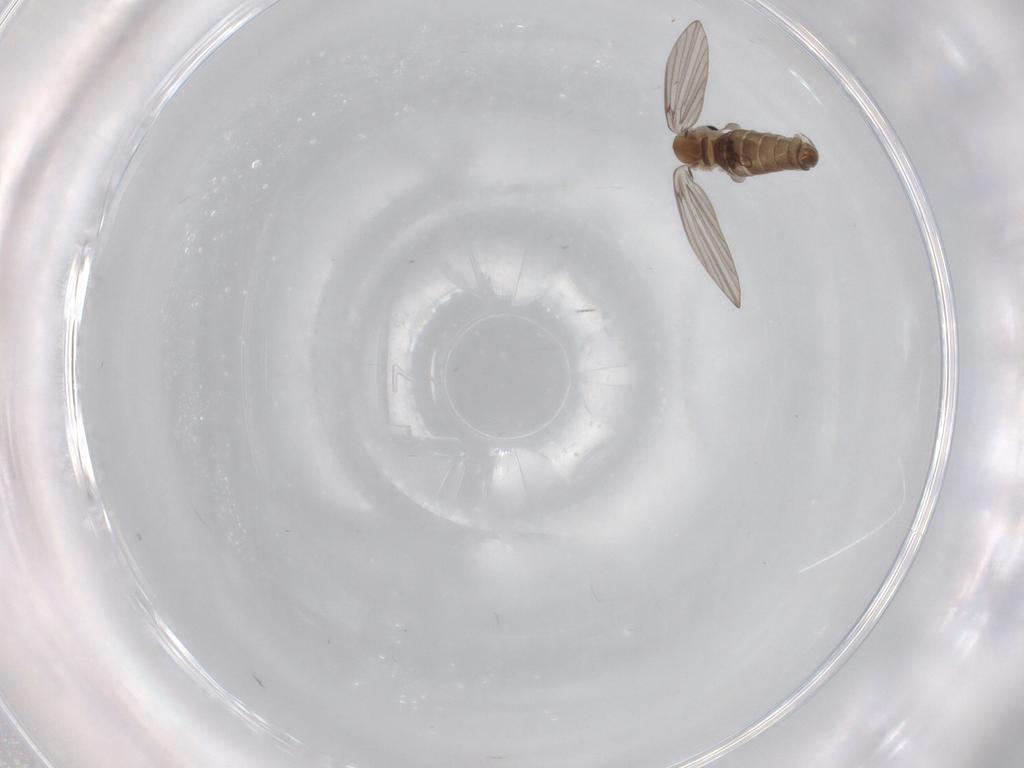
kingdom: Animalia
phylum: Arthropoda
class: Insecta
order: Diptera
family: Psychodidae
